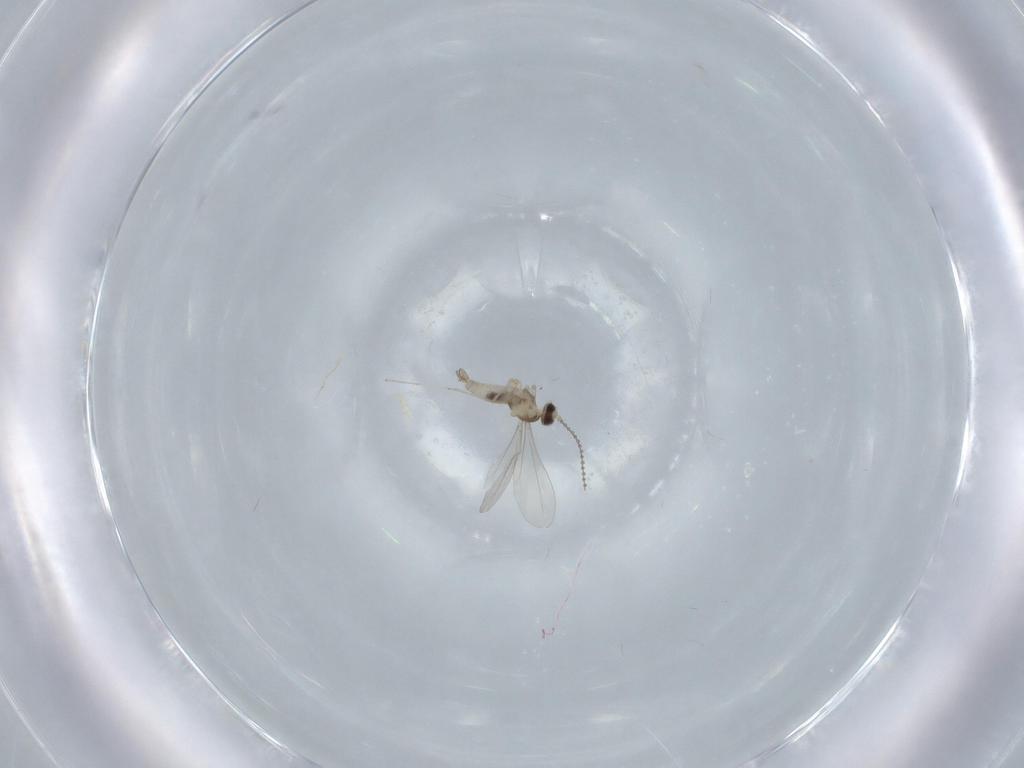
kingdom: Animalia
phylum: Arthropoda
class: Insecta
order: Diptera
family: Cecidomyiidae
